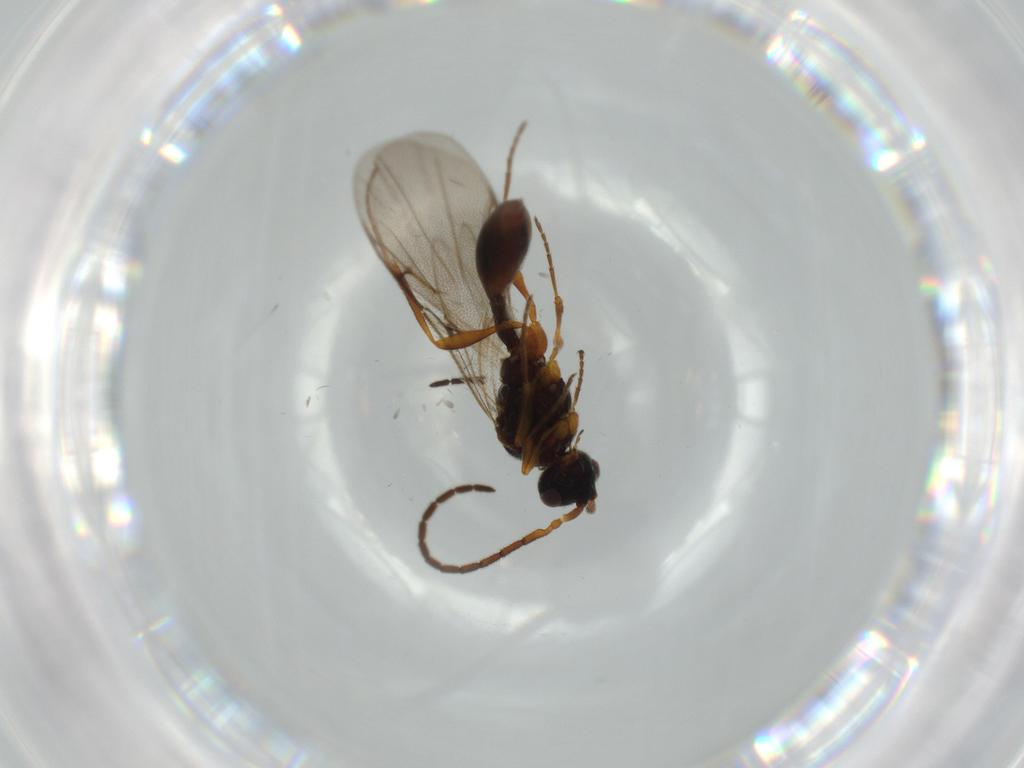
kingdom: Animalia
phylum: Arthropoda
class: Insecta
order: Hymenoptera
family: Diapriidae
